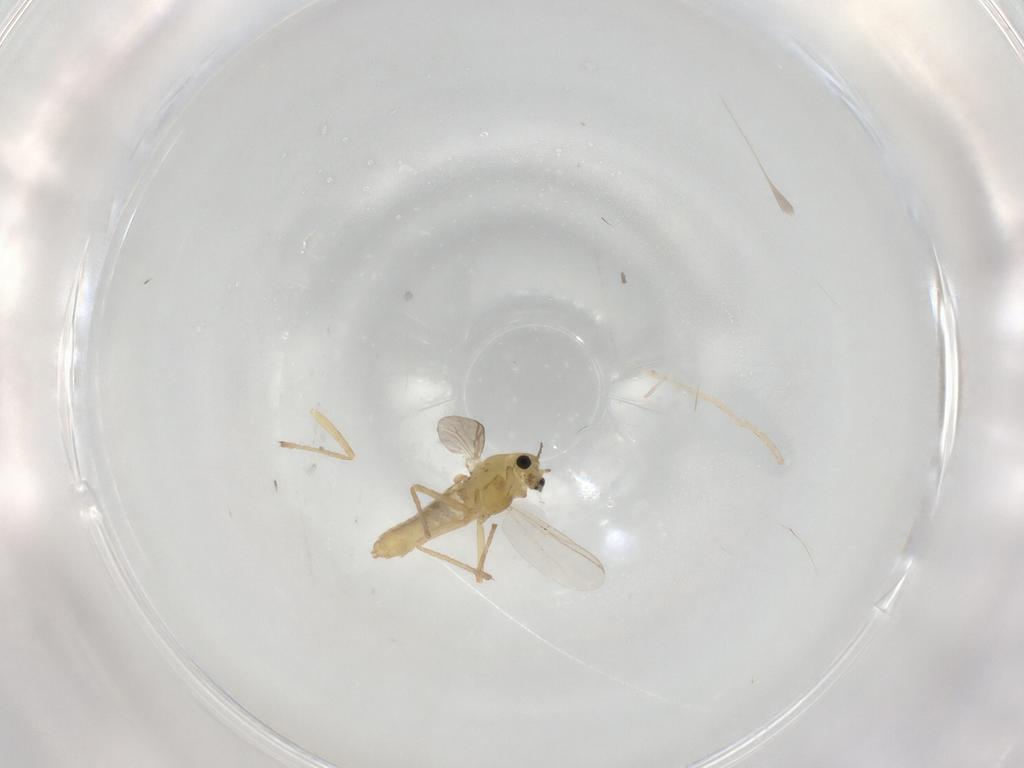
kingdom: Animalia
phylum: Arthropoda
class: Insecta
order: Diptera
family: Chironomidae
